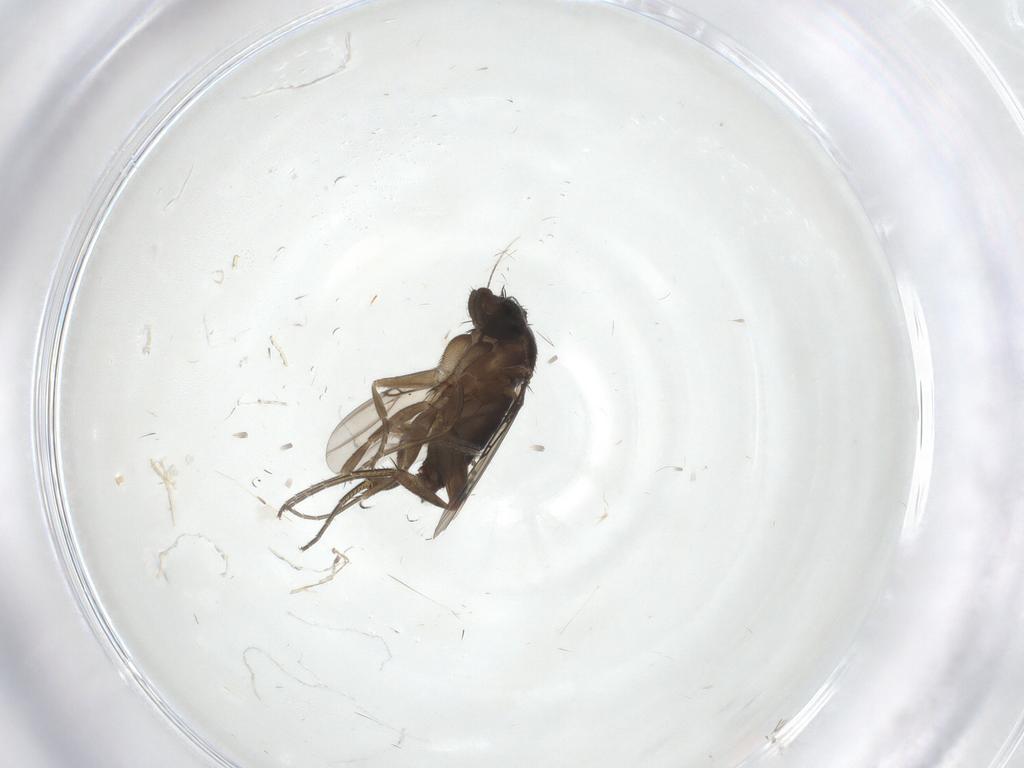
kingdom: Animalia
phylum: Arthropoda
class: Insecta
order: Diptera
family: Phoridae
